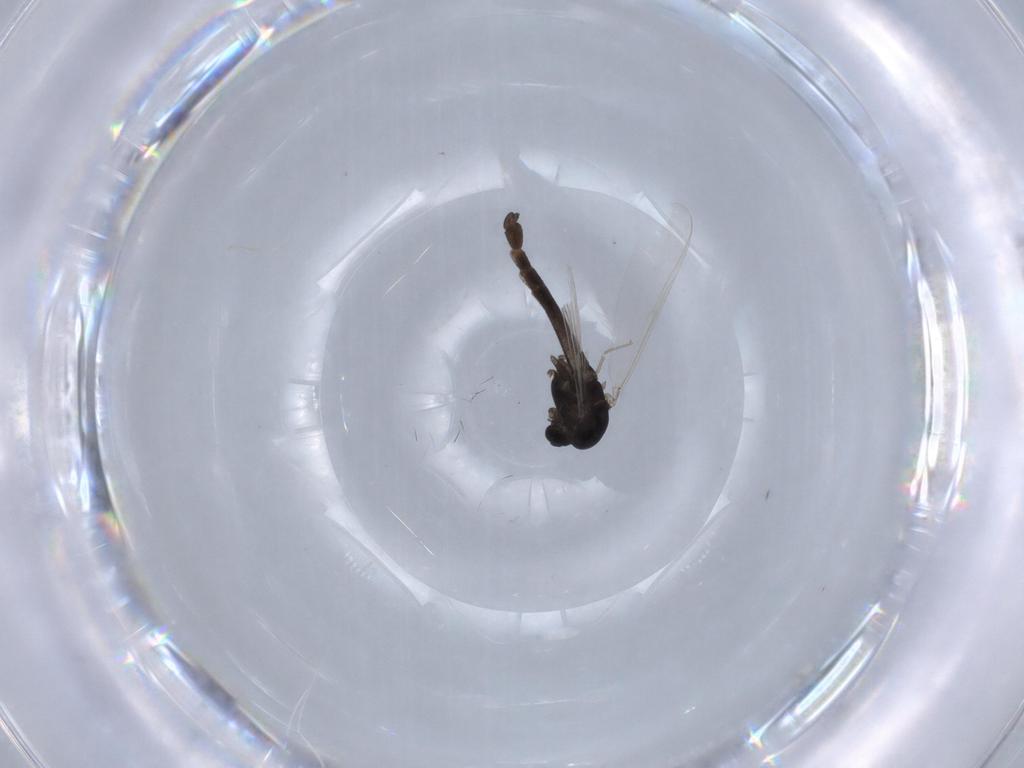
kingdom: Animalia
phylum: Arthropoda
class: Insecta
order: Diptera
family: Chironomidae
